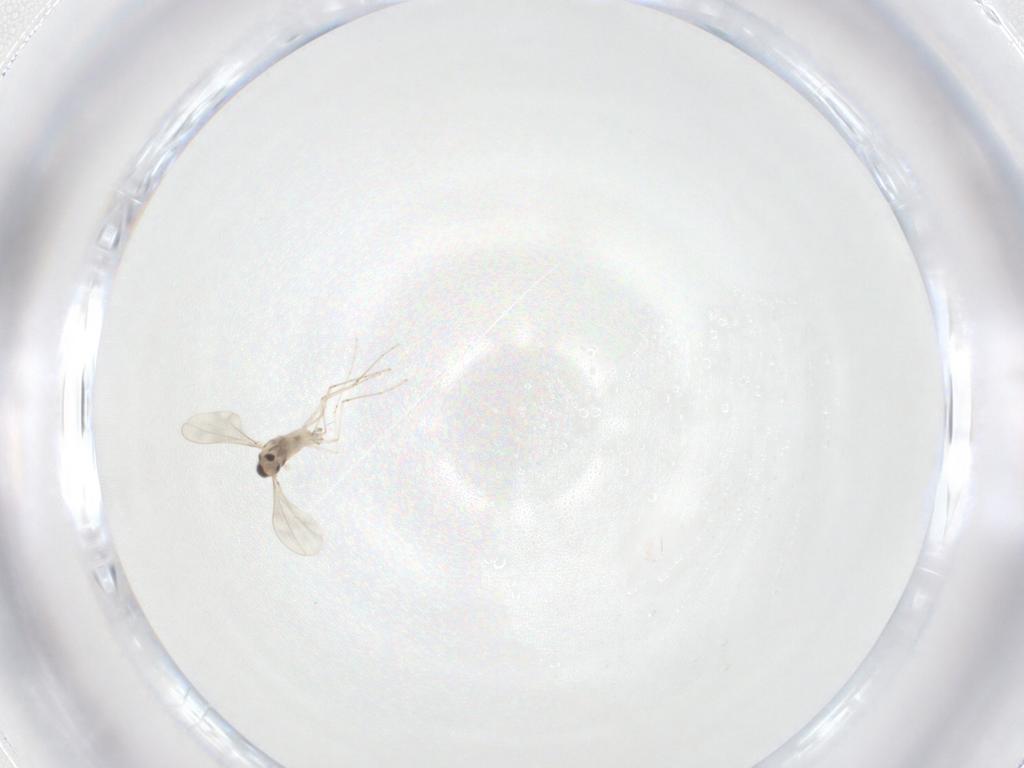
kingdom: Animalia
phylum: Arthropoda
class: Insecta
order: Diptera
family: Cecidomyiidae
